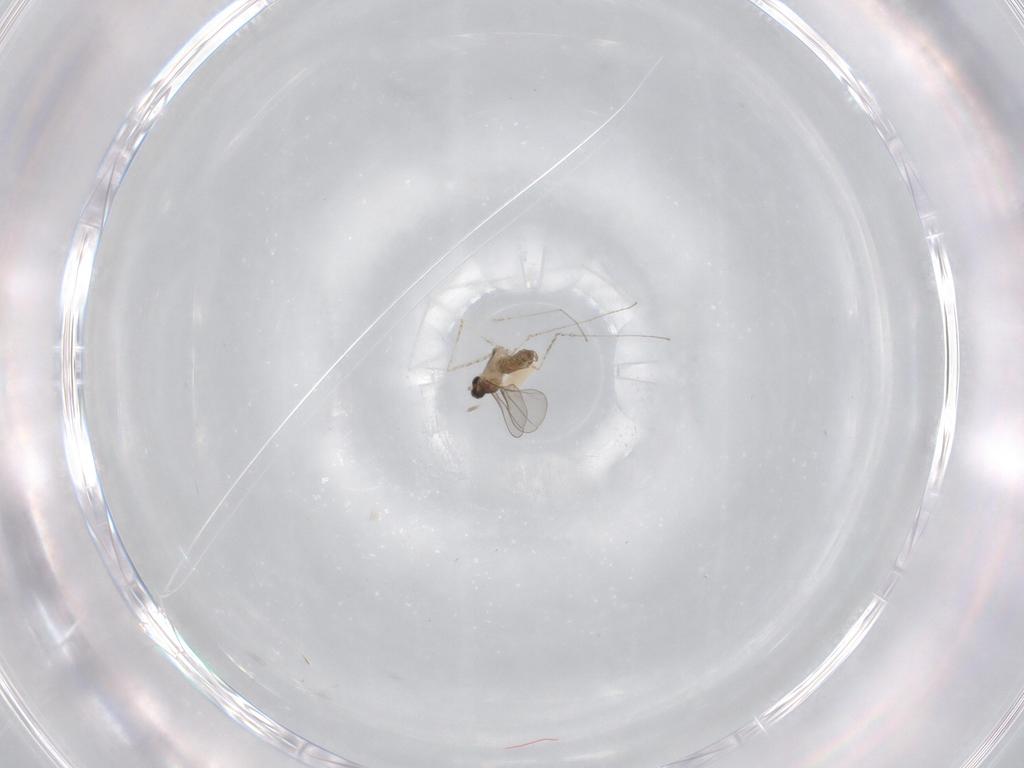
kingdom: Animalia
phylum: Arthropoda
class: Insecta
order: Diptera
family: Cecidomyiidae
